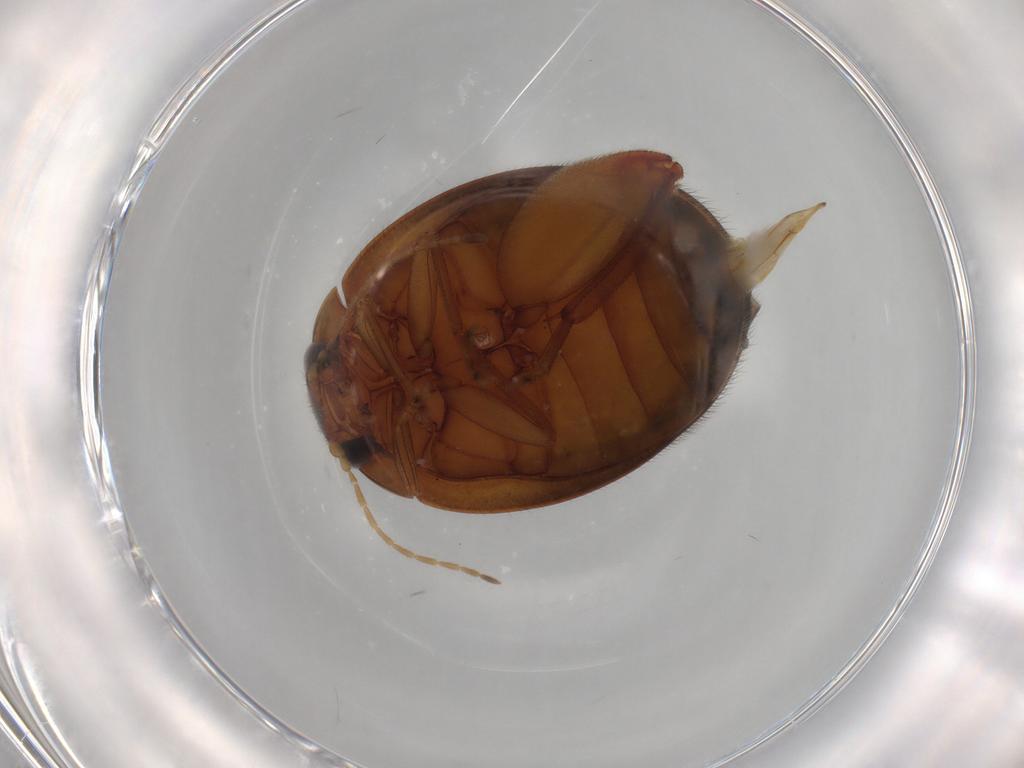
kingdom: Animalia
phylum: Arthropoda
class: Insecta
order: Coleoptera
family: Scirtidae
